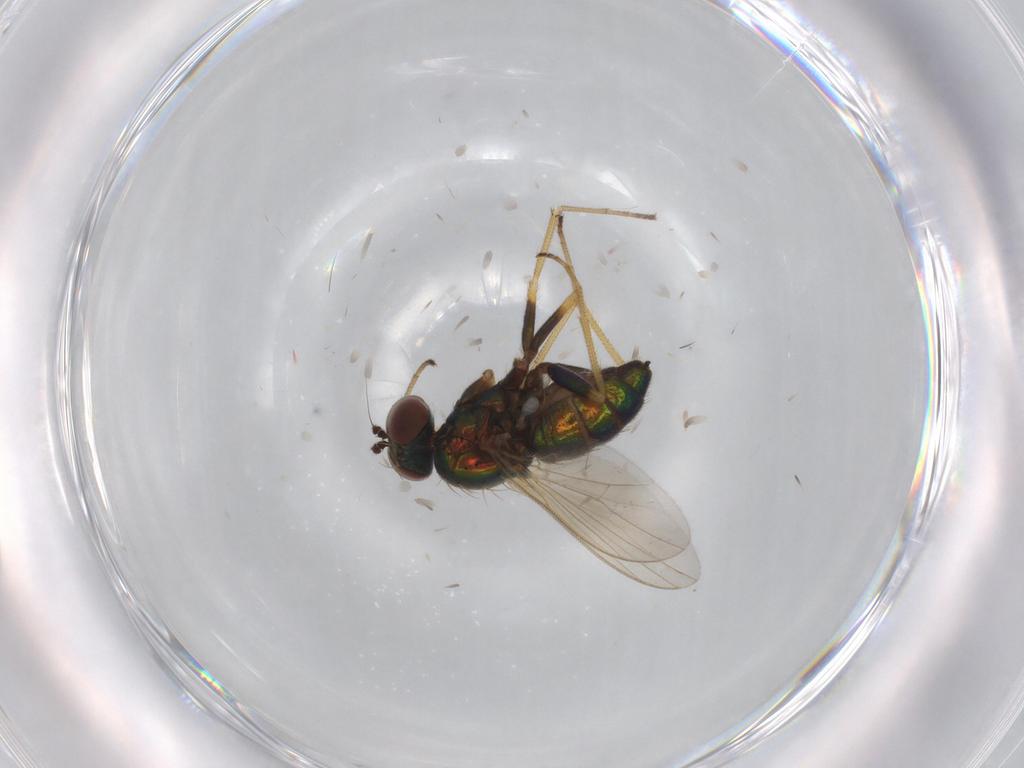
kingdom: Animalia
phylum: Arthropoda
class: Insecta
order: Diptera
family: Dolichopodidae
